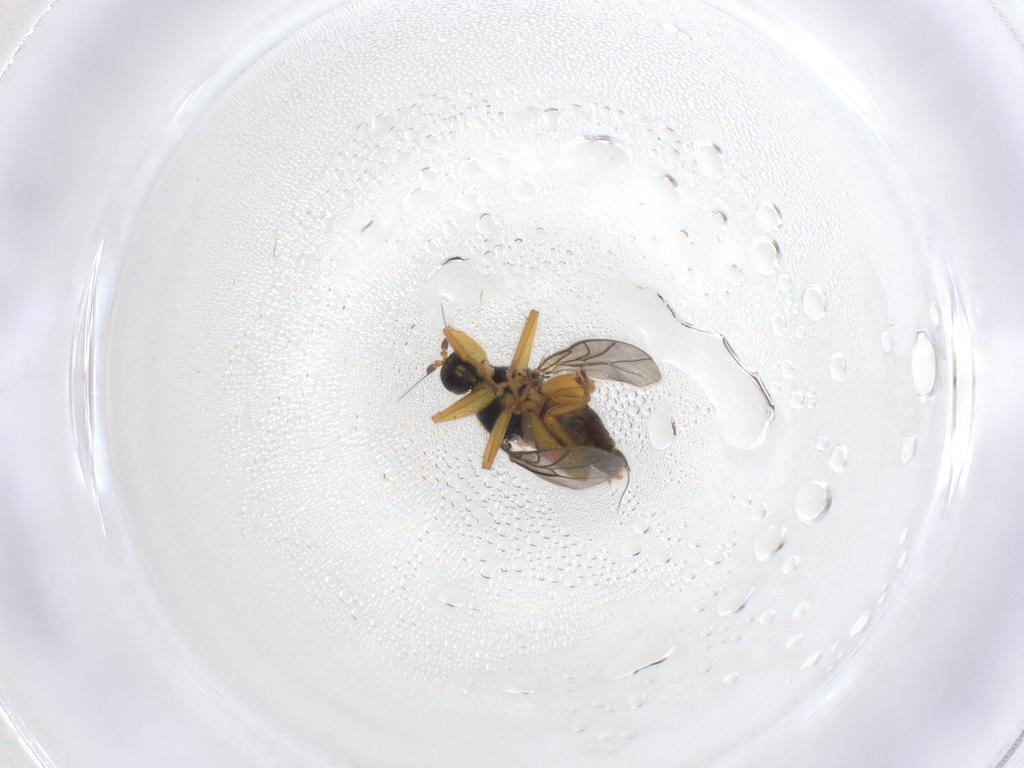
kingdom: Animalia
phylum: Arthropoda
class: Insecta
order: Diptera
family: Hybotidae
